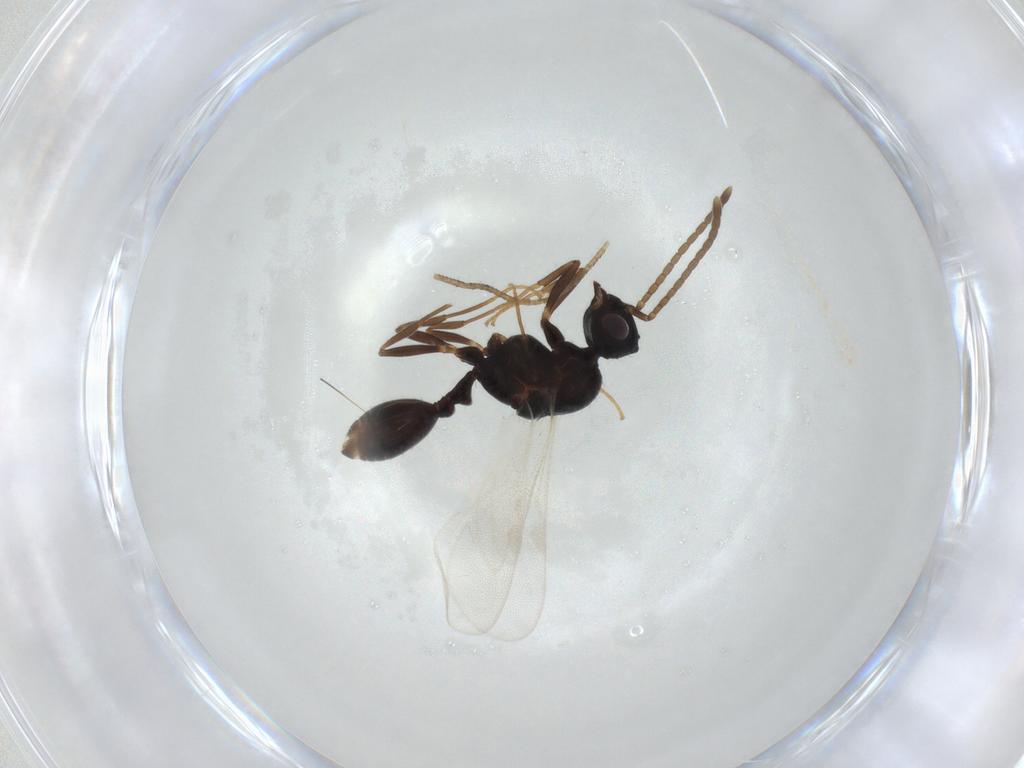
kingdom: Animalia
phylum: Arthropoda
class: Insecta
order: Hymenoptera
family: Formicidae
